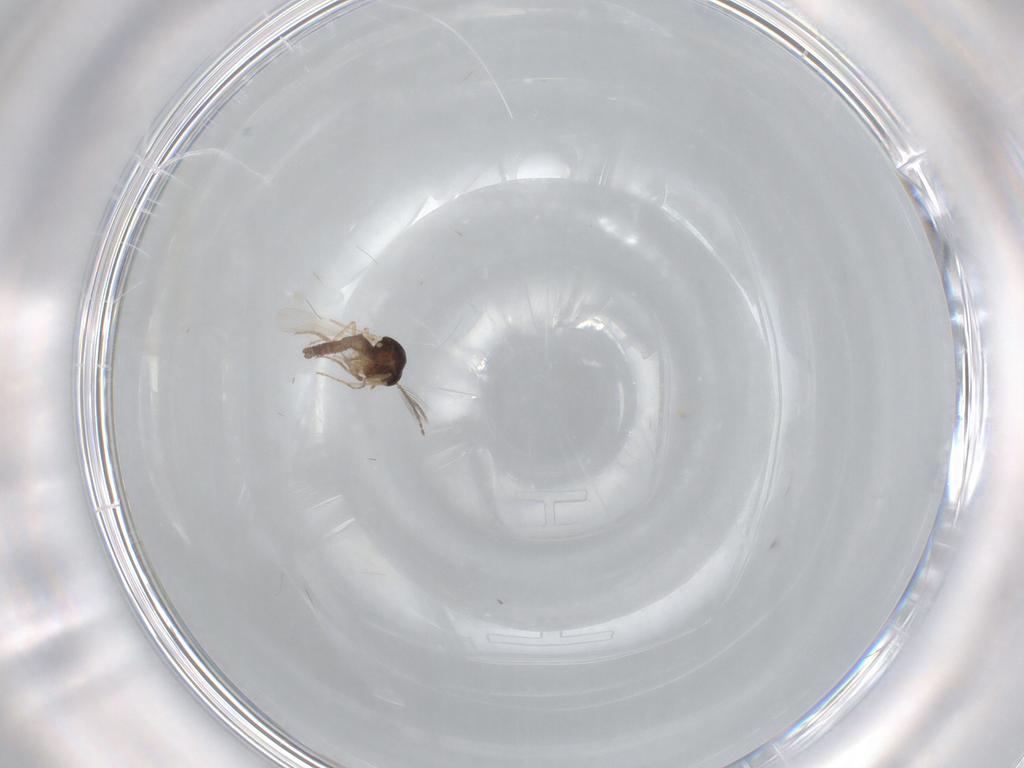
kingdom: Animalia
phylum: Arthropoda
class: Insecta
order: Diptera
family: Ceratopogonidae
